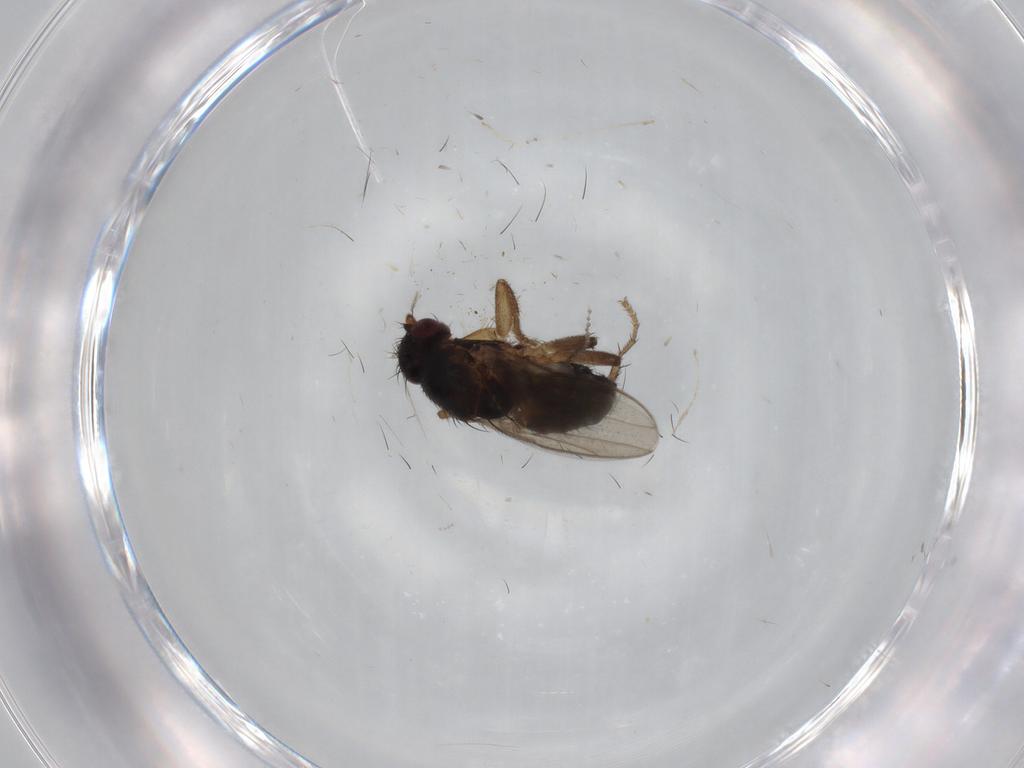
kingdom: Animalia
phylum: Arthropoda
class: Insecta
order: Diptera
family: Sphaeroceridae
